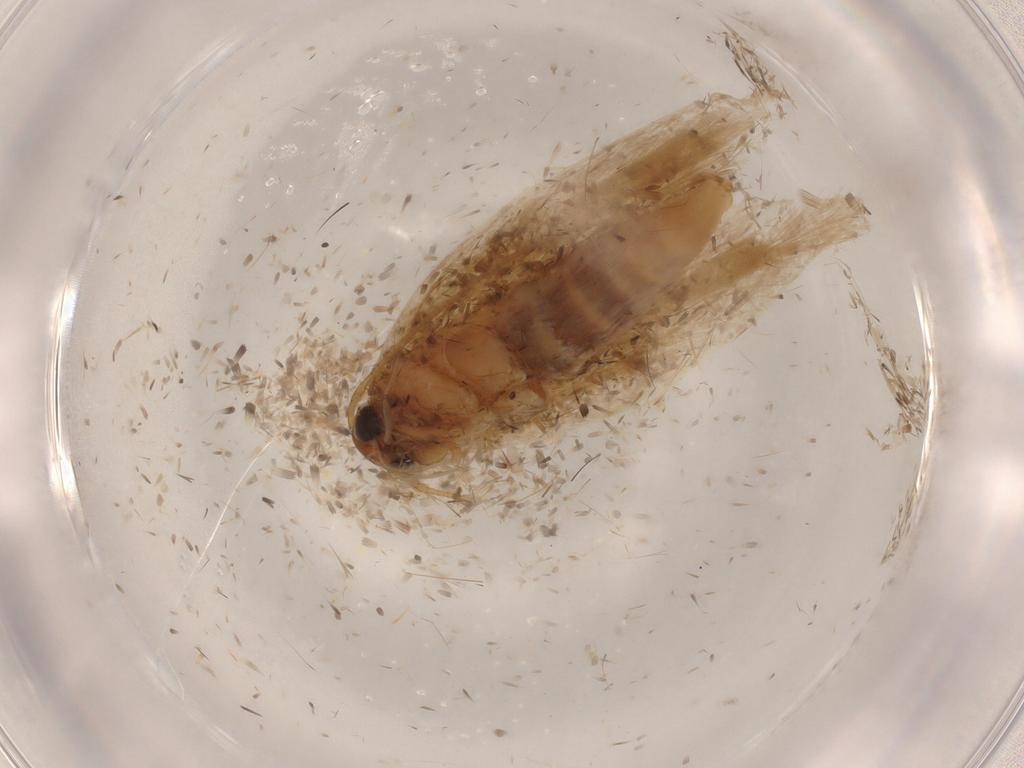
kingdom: Animalia
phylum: Arthropoda
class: Insecta
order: Lepidoptera
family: Gelechiidae
